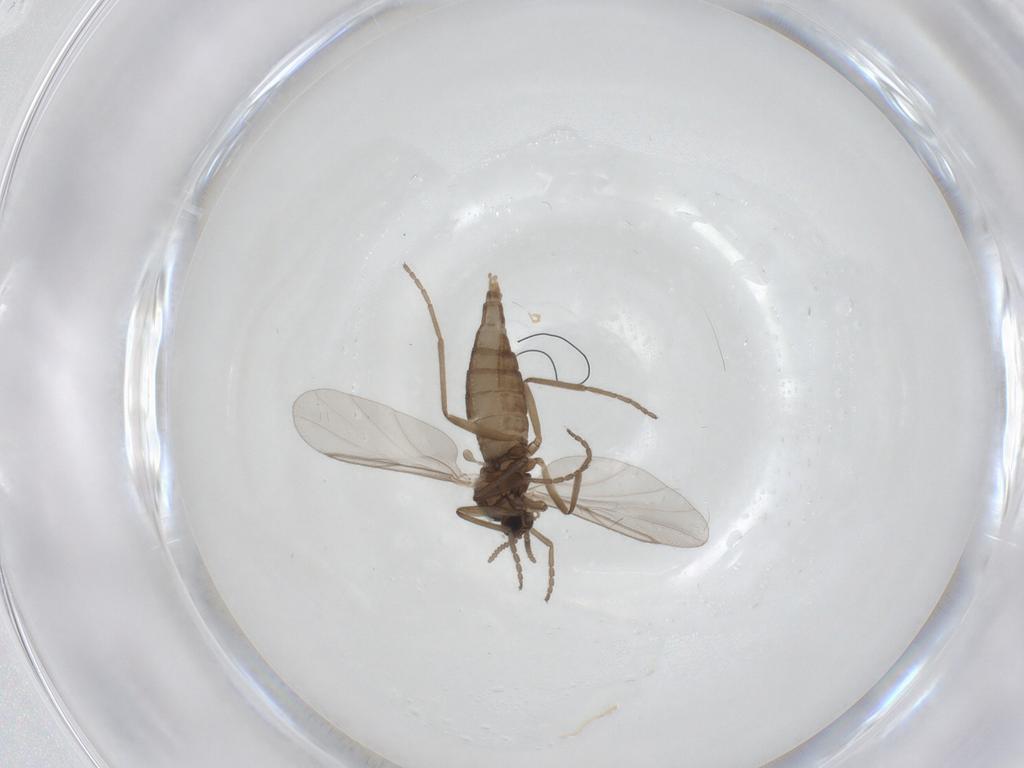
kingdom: Animalia
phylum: Arthropoda
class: Insecta
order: Diptera
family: Cecidomyiidae
